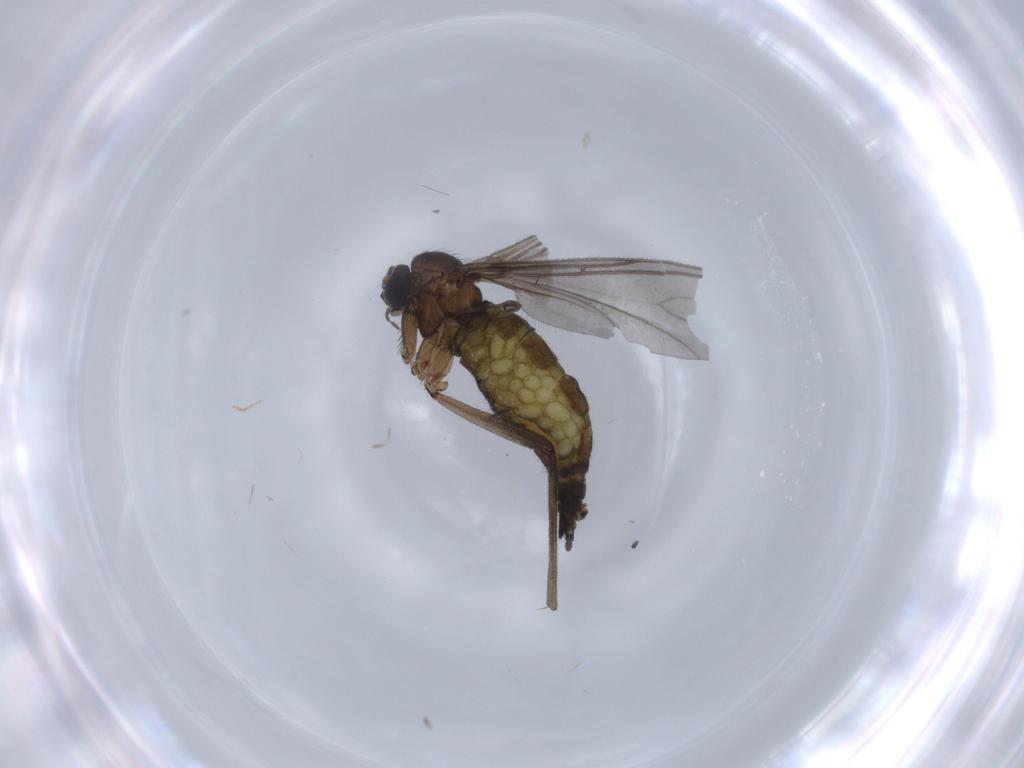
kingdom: Animalia
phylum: Arthropoda
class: Insecta
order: Diptera
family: Sciaridae
